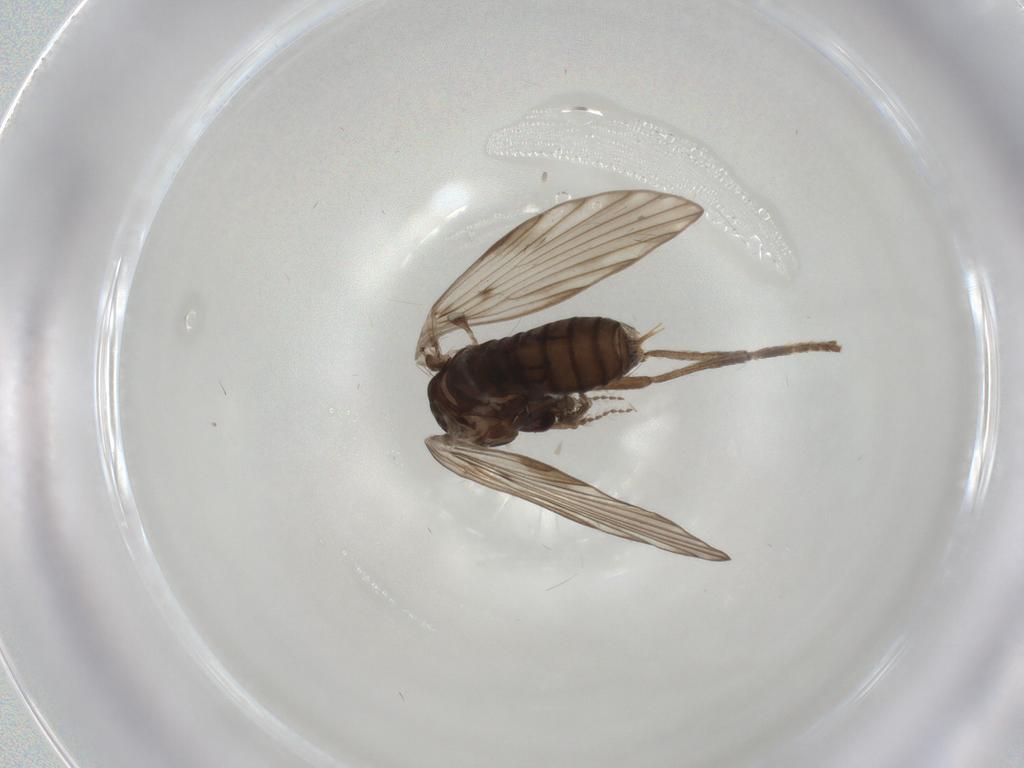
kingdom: Animalia
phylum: Arthropoda
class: Insecta
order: Diptera
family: Psychodidae
